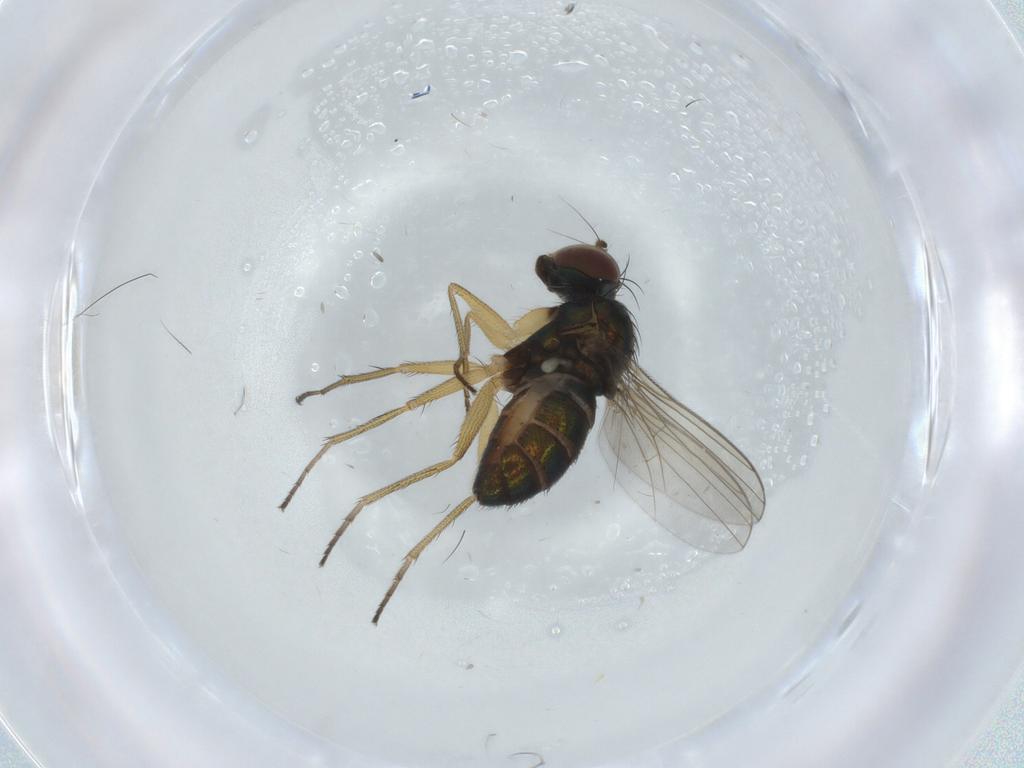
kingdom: Animalia
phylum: Arthropoda
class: Insecta
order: Diptera
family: Dolichopodidae
